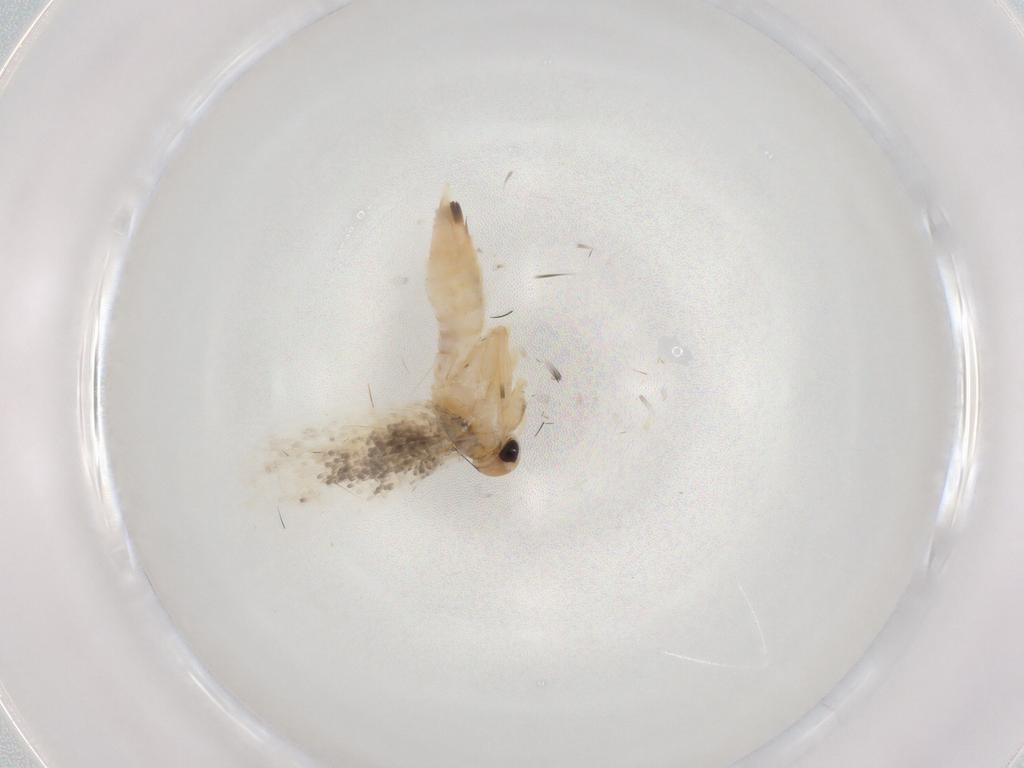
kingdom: Animalia
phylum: Arthropoda
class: Insecta
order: Lepidoptera
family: Gelechiidae
